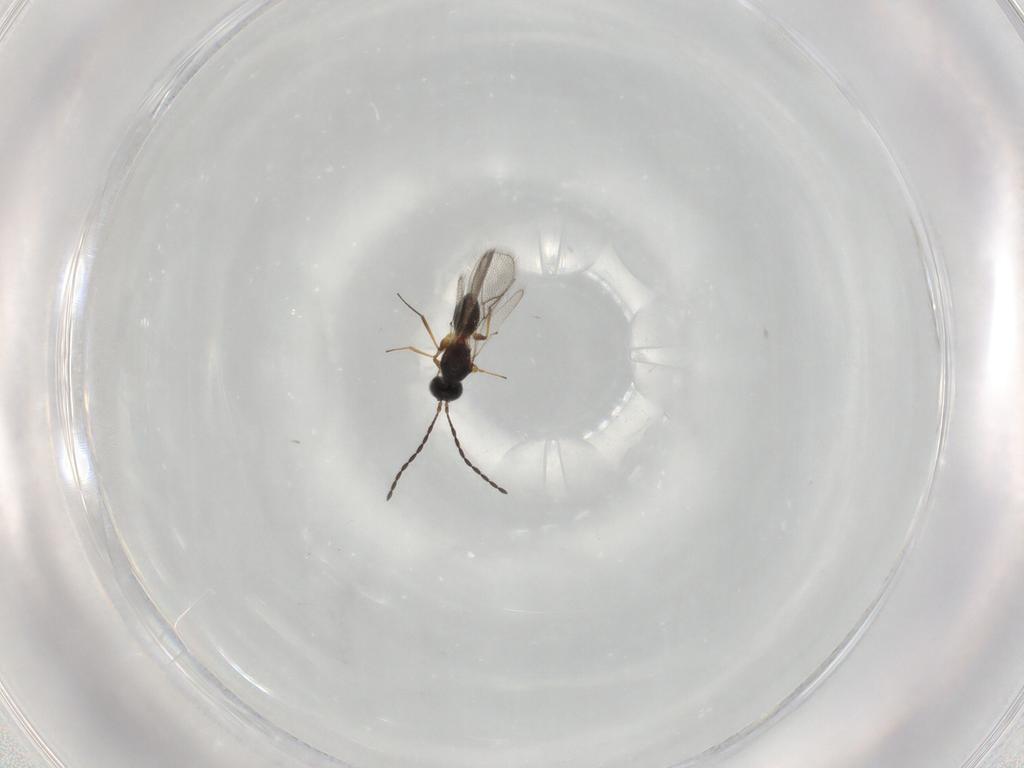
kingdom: Animalia
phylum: Arthropoda
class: Insecta
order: Hymenoptera
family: Figitidae
